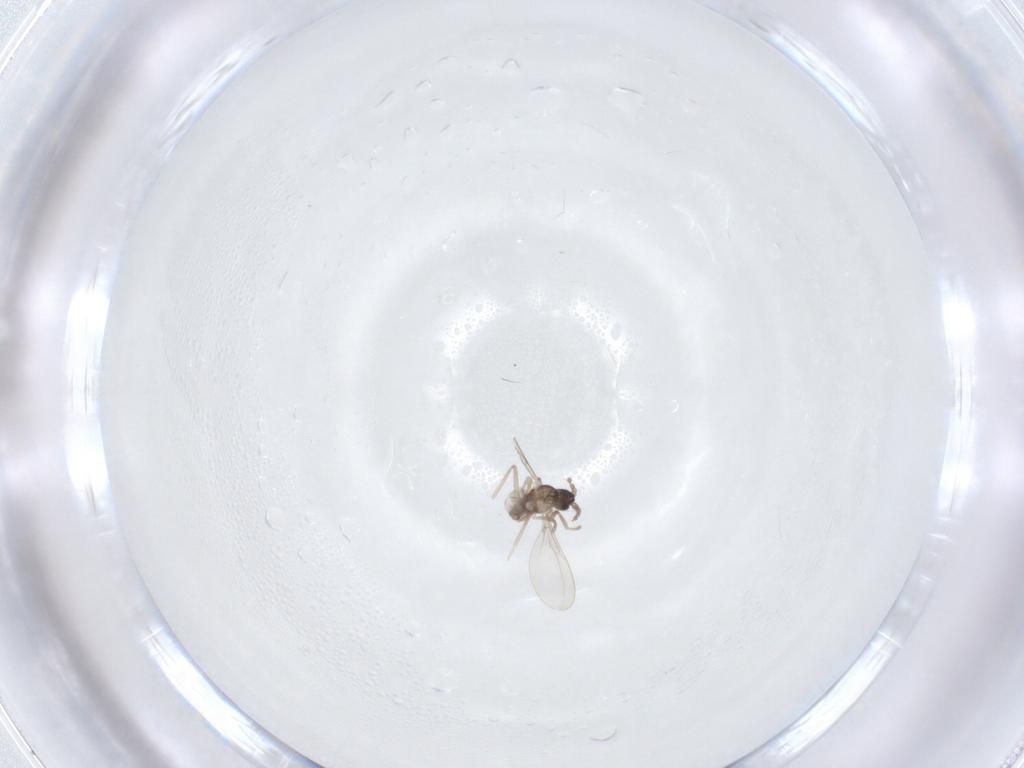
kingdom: Animalia
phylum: Arthropoda
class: Insecta
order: Diptera
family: Cecidomyiidae
